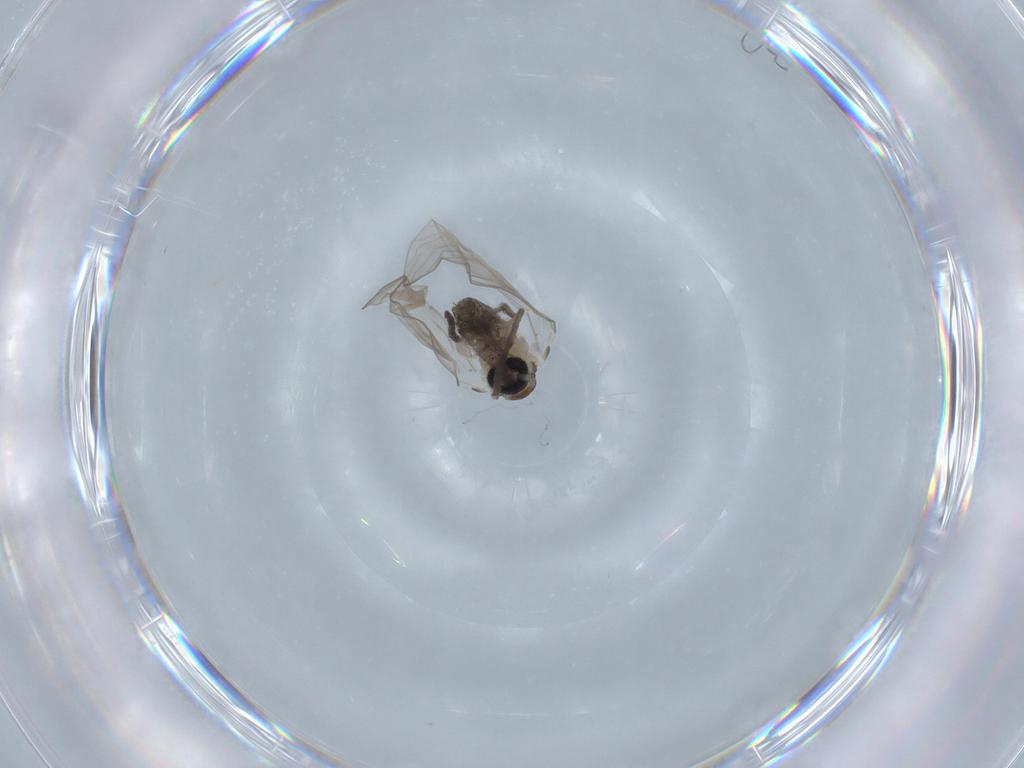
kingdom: Animalia
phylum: Arthropoda
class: Insecta
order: Diptera
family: Psychodidae
